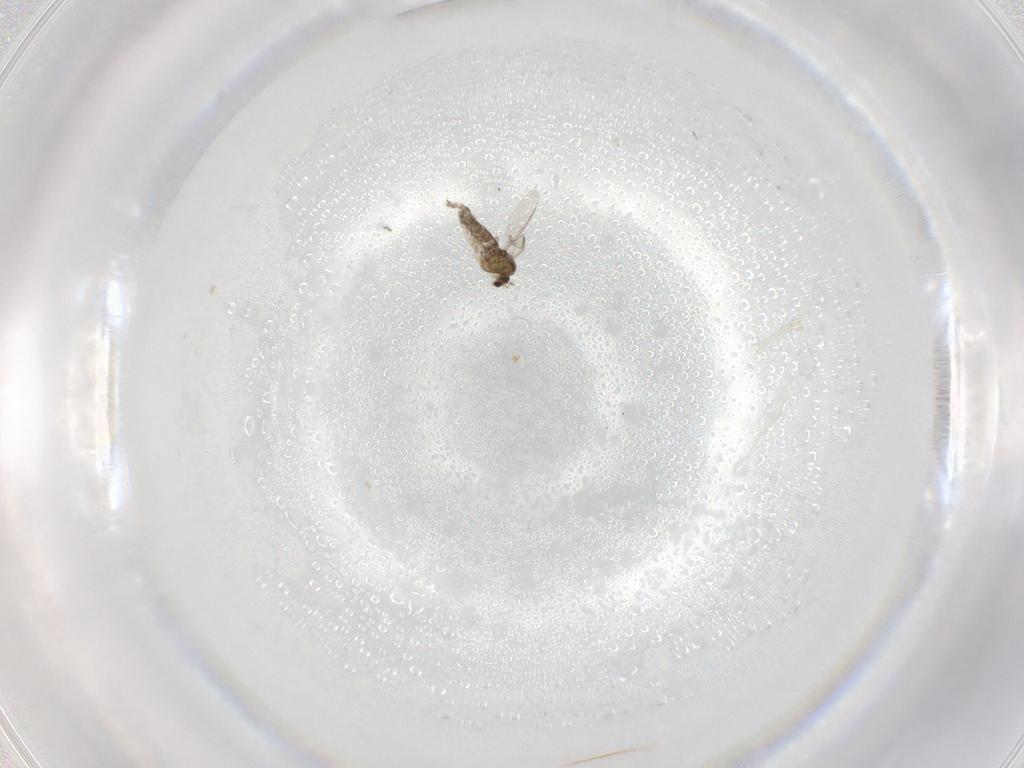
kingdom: Animalia
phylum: Arthropoda
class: Insecta
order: Diptera
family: Chironomidae
